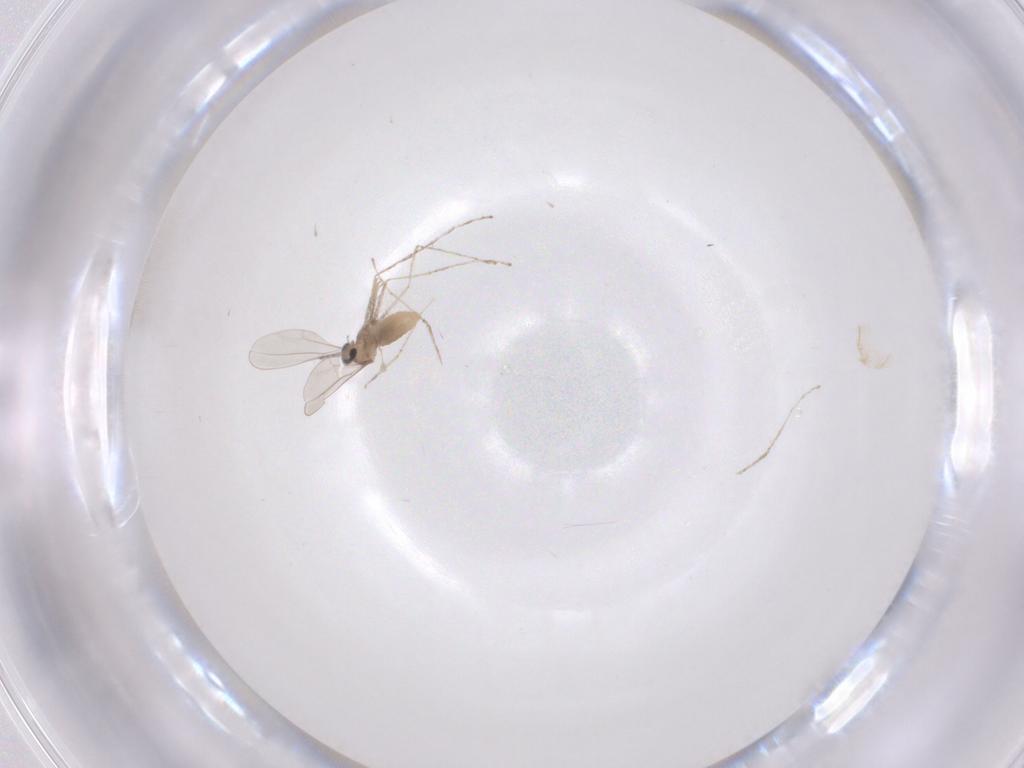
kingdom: Animalia
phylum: Arthropoda
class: Insecta
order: Diptera
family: Cecidomyiidae
